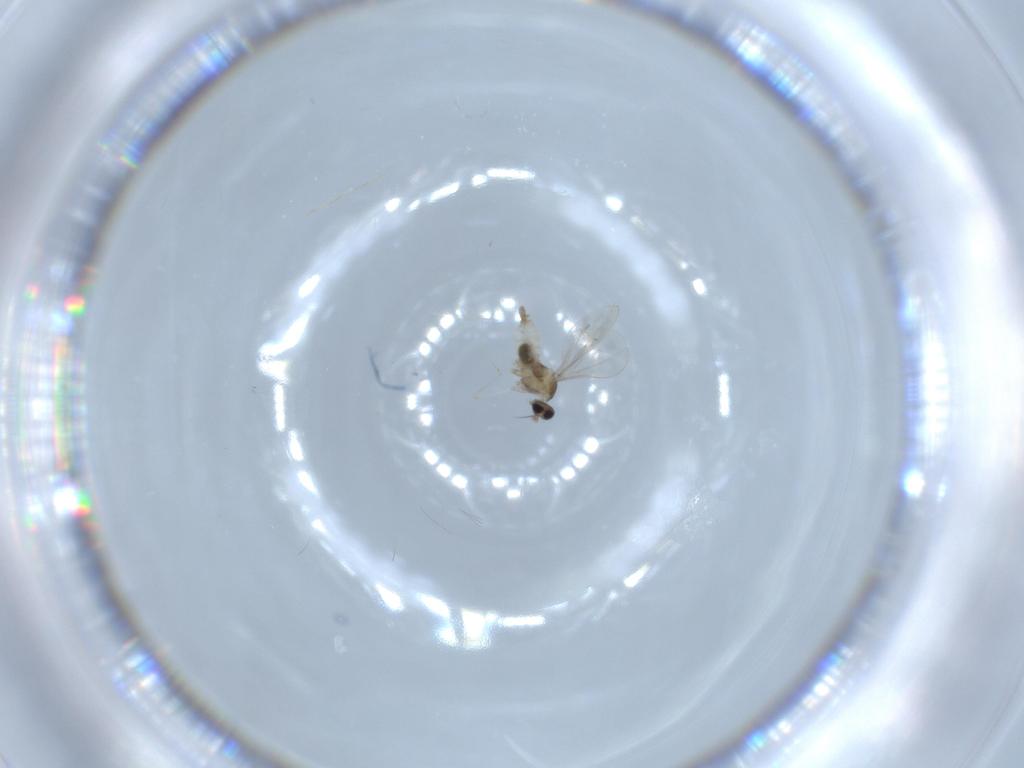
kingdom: Animalia
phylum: Arthropoda
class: Insecta
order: Diptera
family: Cecidomyiidae
